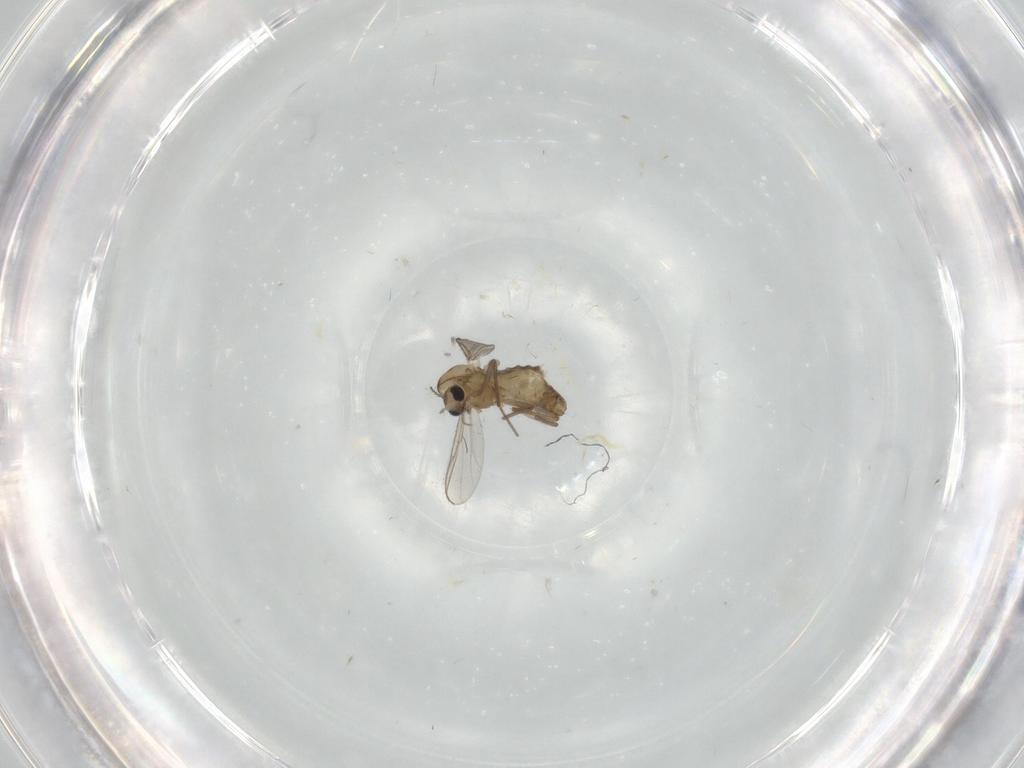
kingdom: Animalia
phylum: Arthropoda
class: Insecta
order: Diptera
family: Chironomidae
